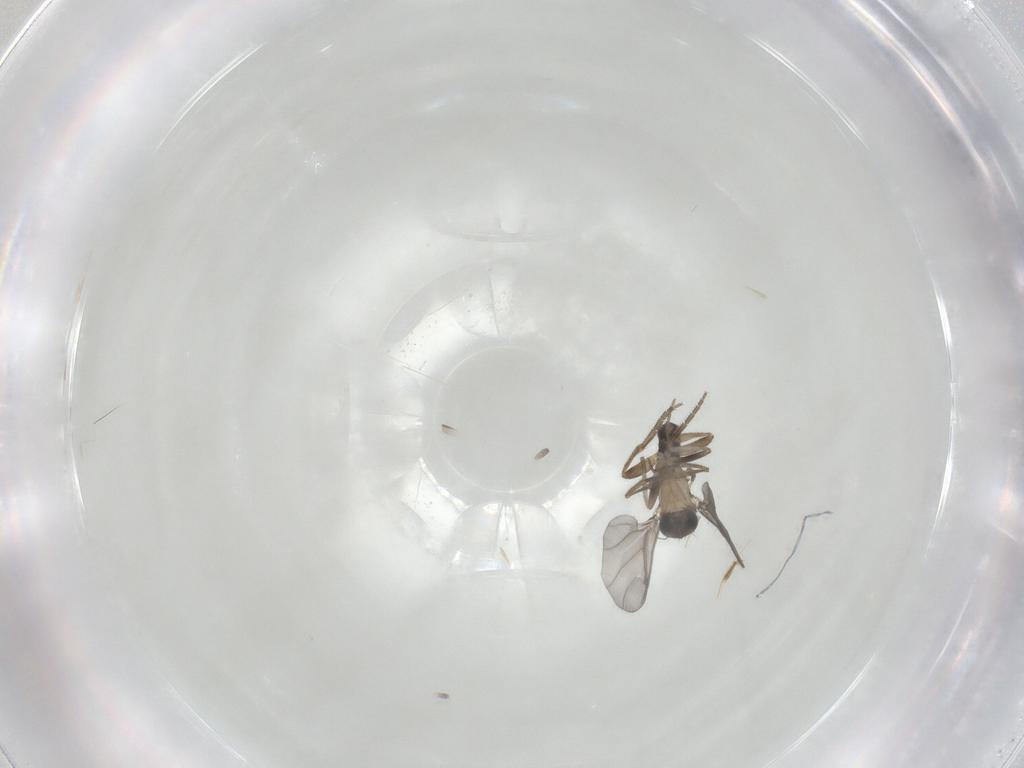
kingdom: Animalia
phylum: Arthropoda
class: Insecta
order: Diptera
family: Phoridae
